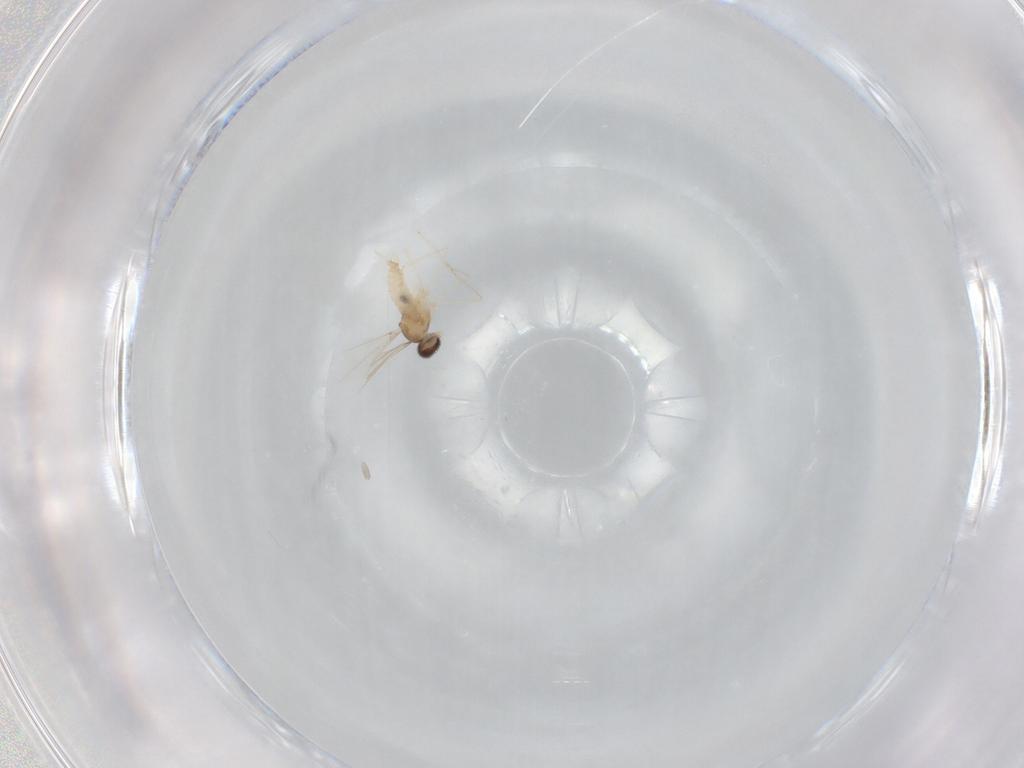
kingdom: Animalia
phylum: Arthropoda
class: Insecta
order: Diptera
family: Cecidomyiidae
